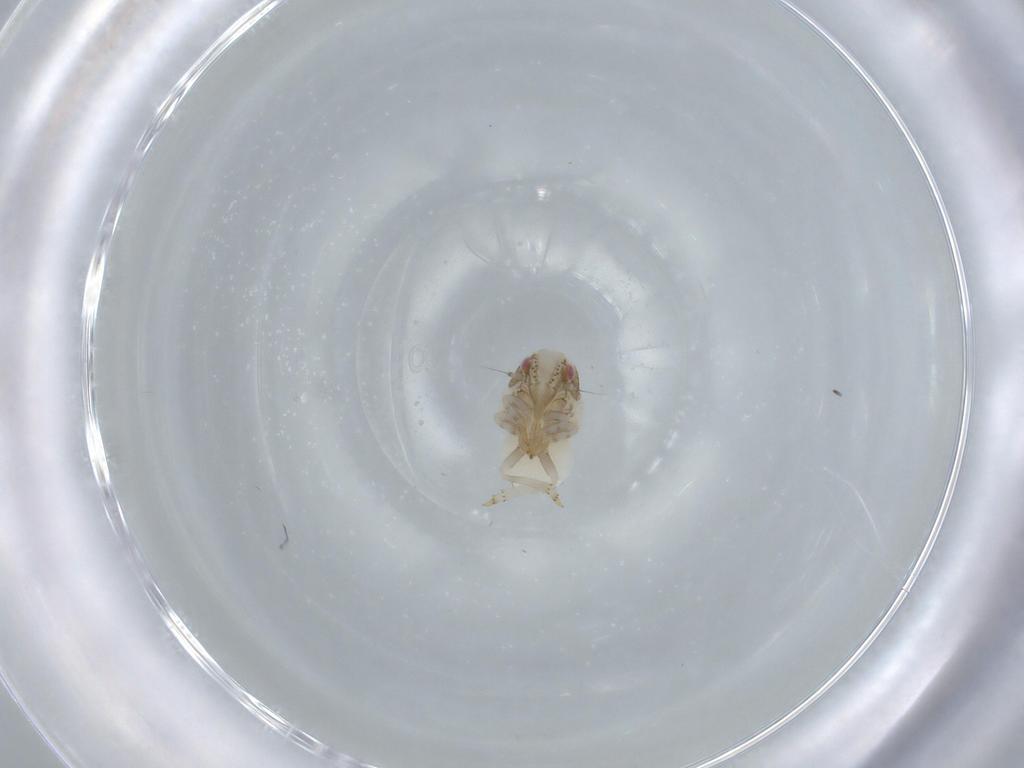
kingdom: Animalia
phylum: Arthropoda
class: Insecta
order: Hemiptera
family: Acanaloniidae
